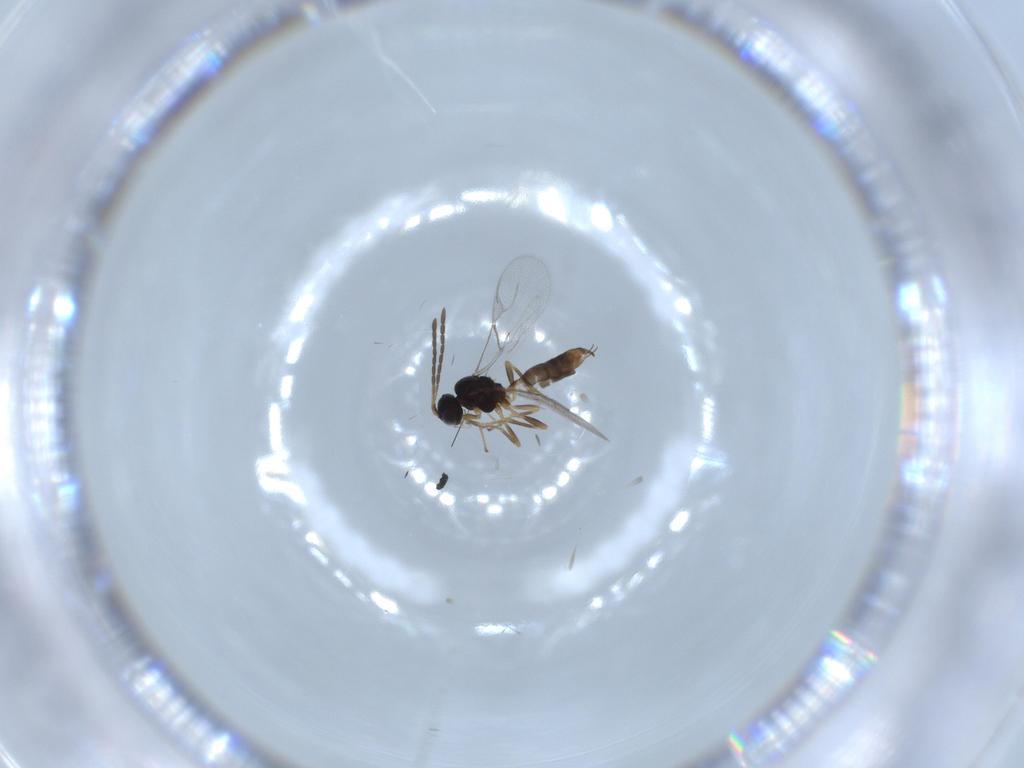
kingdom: Animalia
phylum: Arthropoda
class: Insecta
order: Hymenoptera
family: Braconidae
